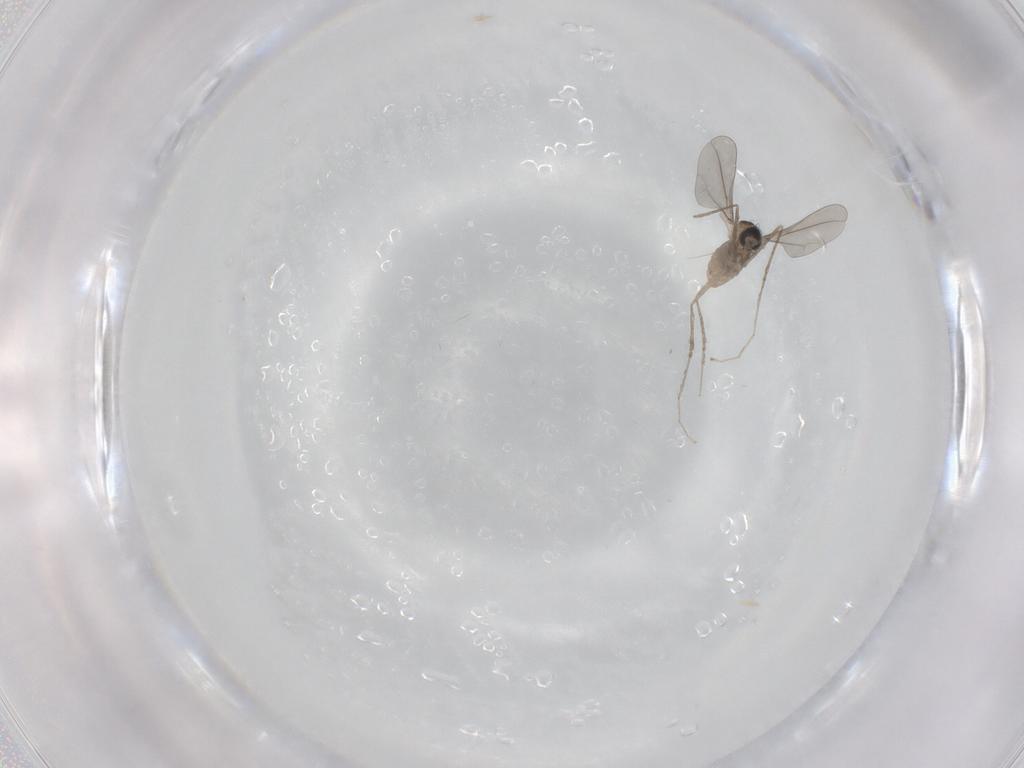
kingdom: Animalia
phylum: Arthropoda
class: Insecta
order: Diptera
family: Cecidomyiidae
